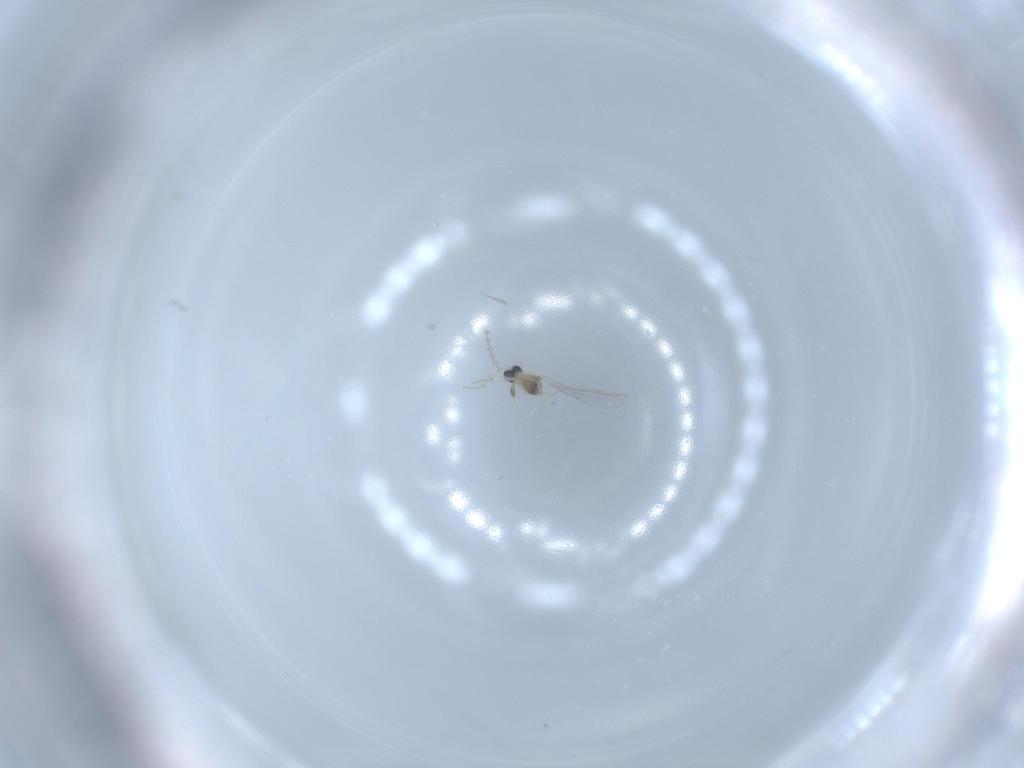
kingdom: Animalia
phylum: Arthropoda
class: Insecta
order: Diptera
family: Cecidomyiidae
